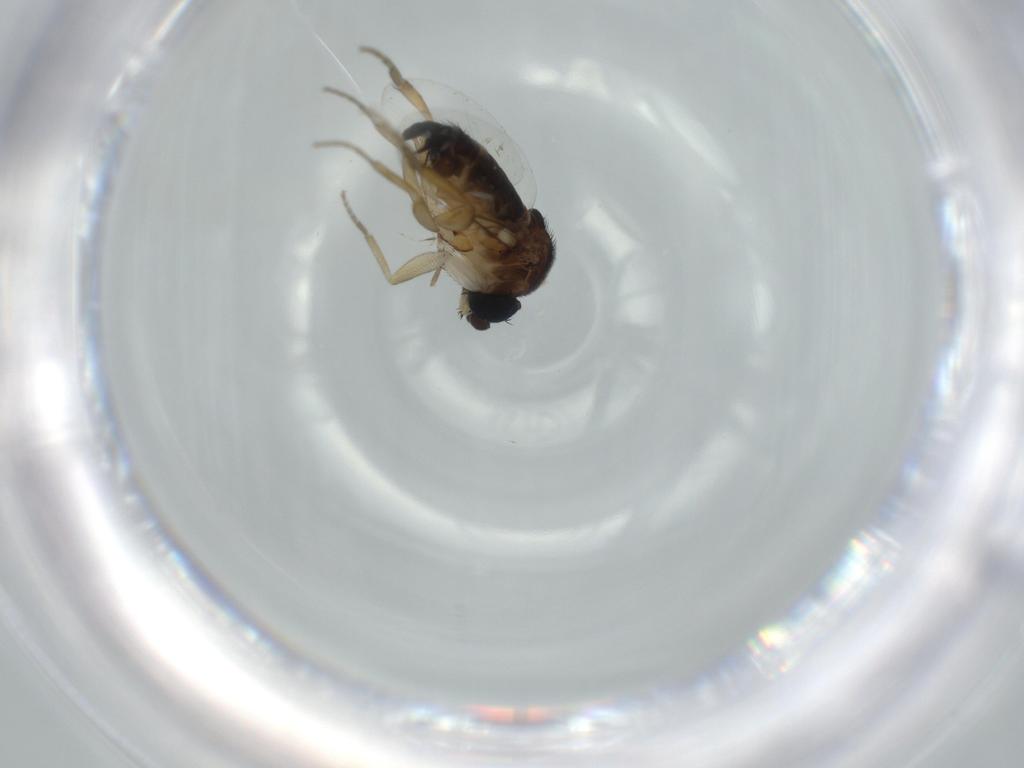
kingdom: Animalia
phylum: Arthropoda
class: Insecta
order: Diptera
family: Phoridae
